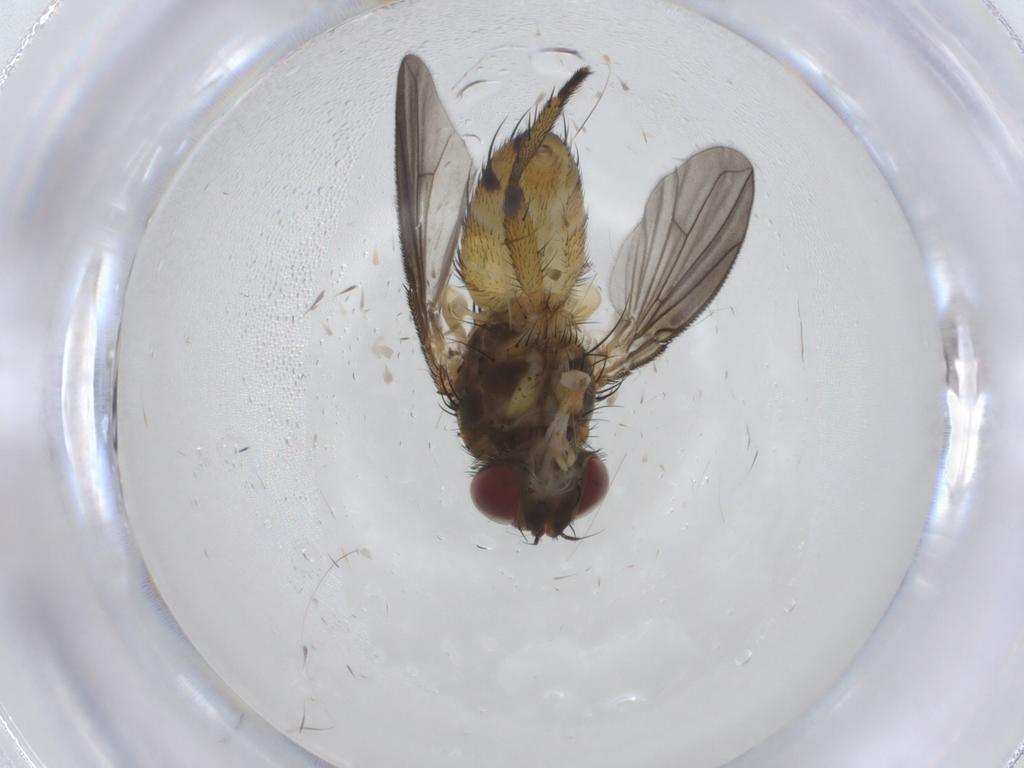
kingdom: Animalia
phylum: Arthropoda
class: Insecta
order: Diptera
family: Tachinidae
